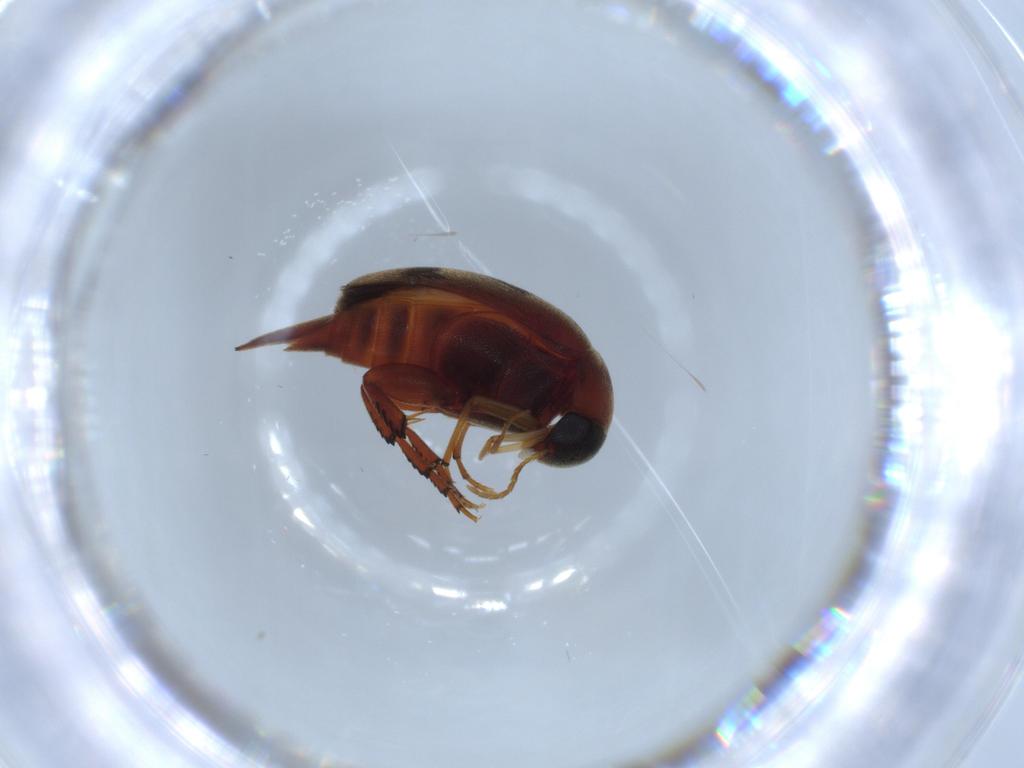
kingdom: Animalia
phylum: Arthropoda
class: Insecta
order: Coleoptera
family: Mordellidae
